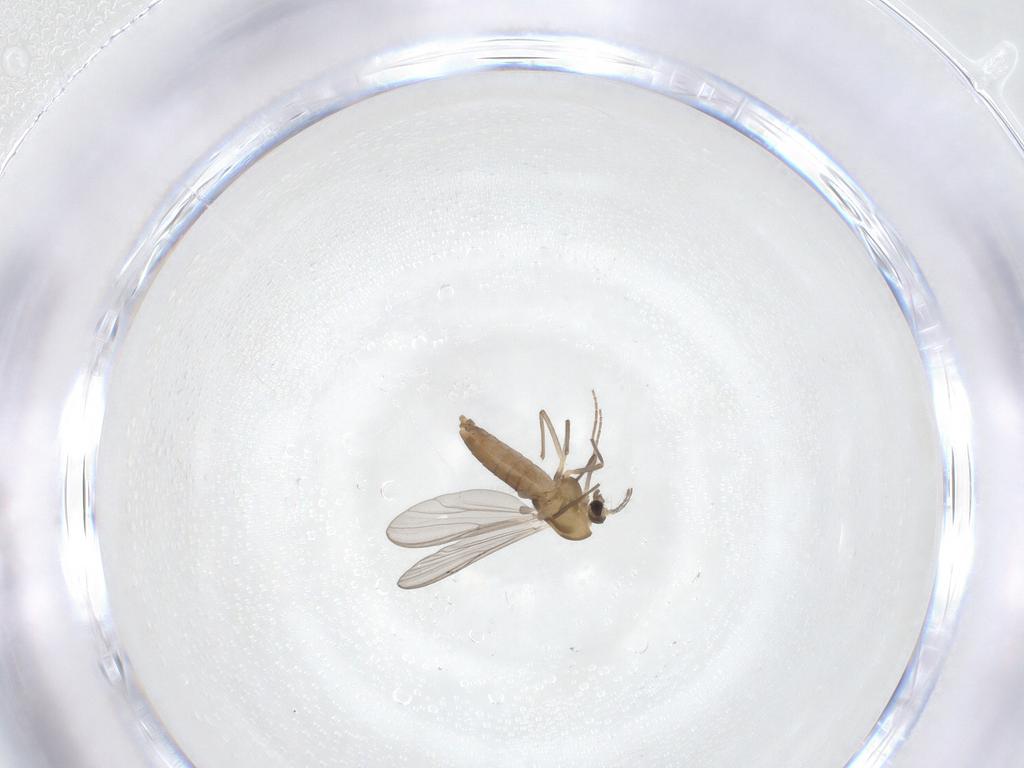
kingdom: Animalia
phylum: Arthropoda
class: Insecta
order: Diptera
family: Chironomidae
